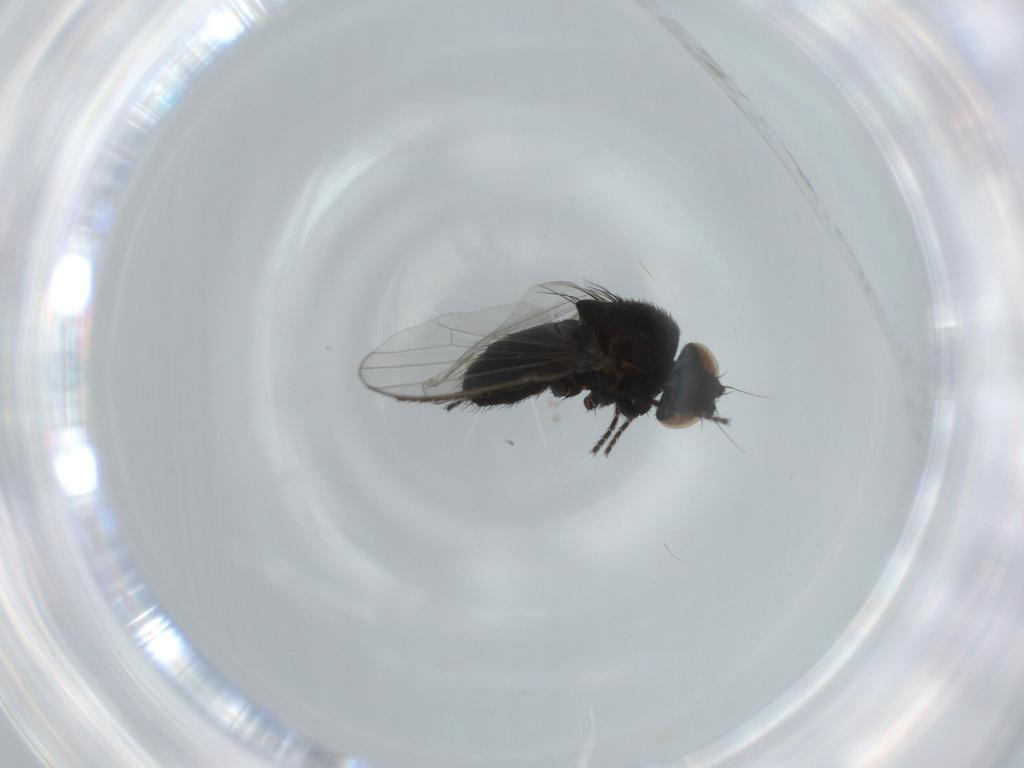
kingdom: Animalia
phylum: Arthropoda
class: Insecta
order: Diptera
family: Milichiidae
